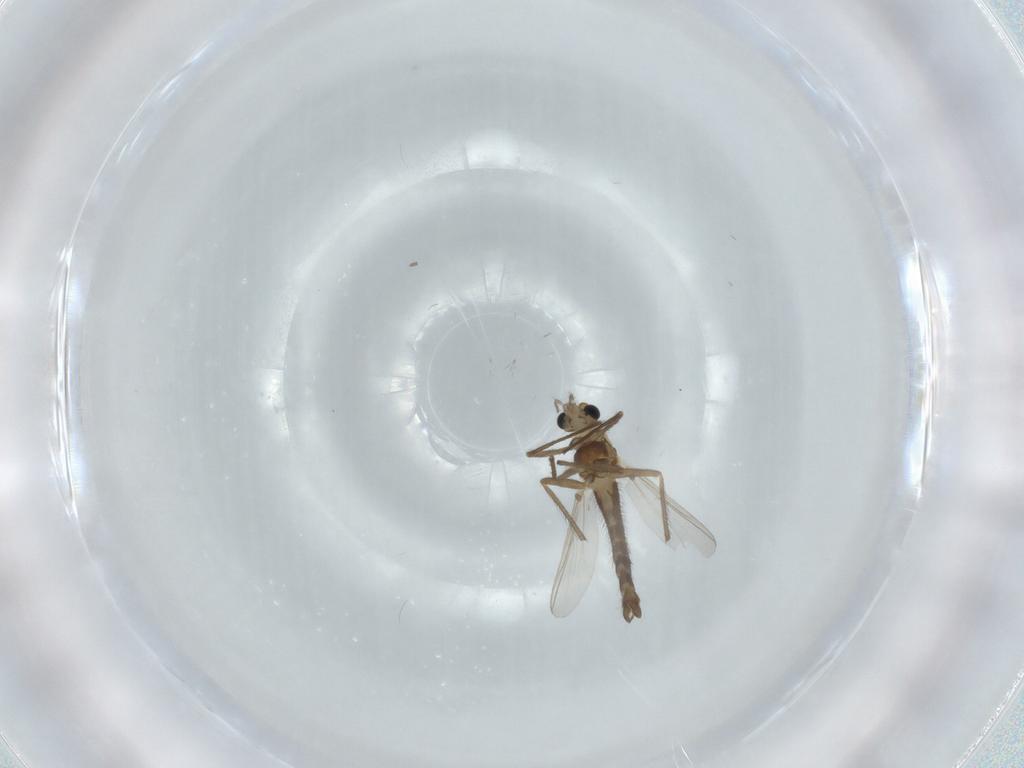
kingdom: Animalia
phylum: Arthropoda
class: Insecta
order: Diptera
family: Chironomidae
